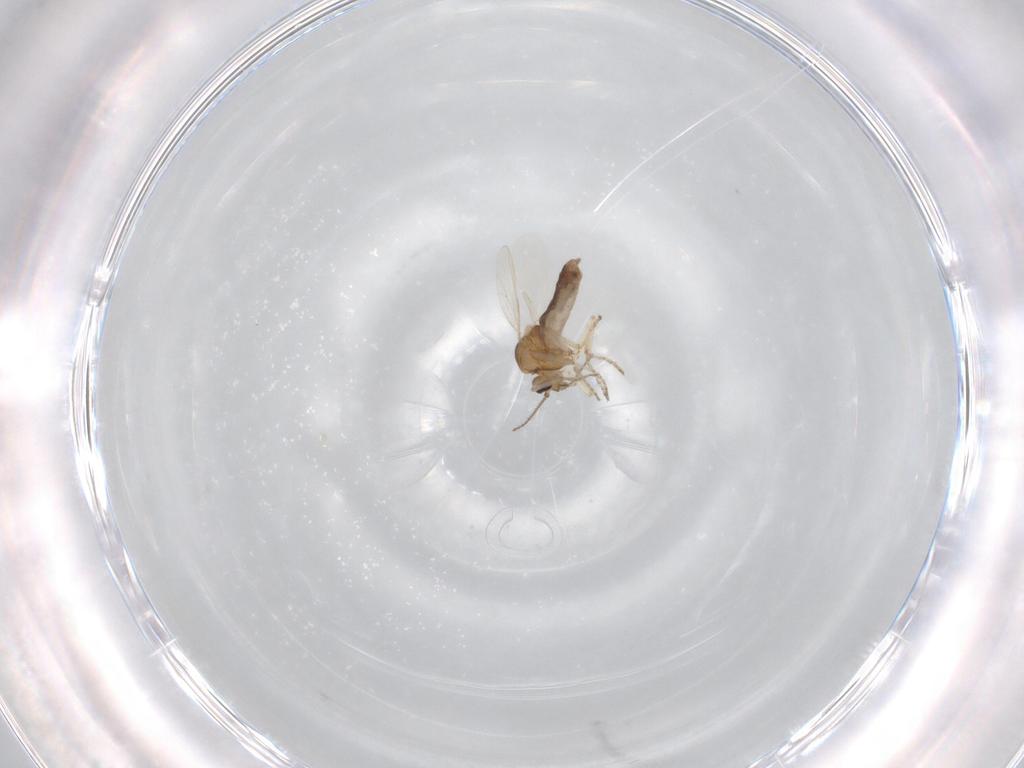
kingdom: Animalia
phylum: Arthropoda
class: Insecta
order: Diptera
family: Ceratopogonidae
